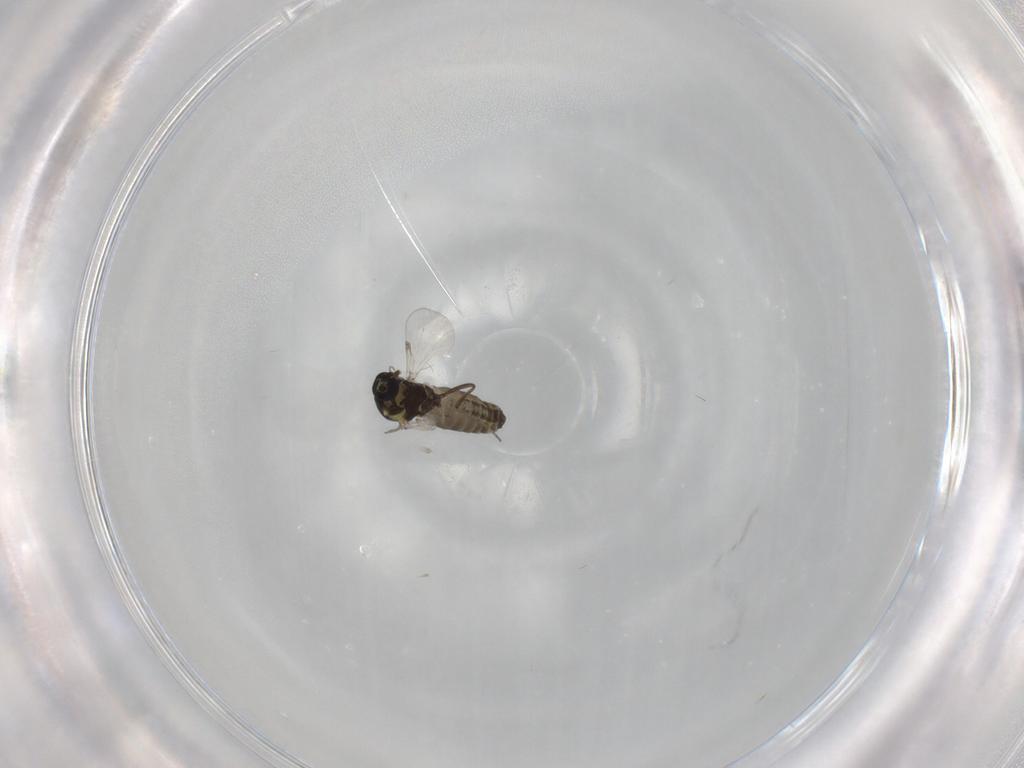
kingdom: Animalia
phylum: Arthropoda
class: Insecta
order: Diptera
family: Ceratopogonidae
